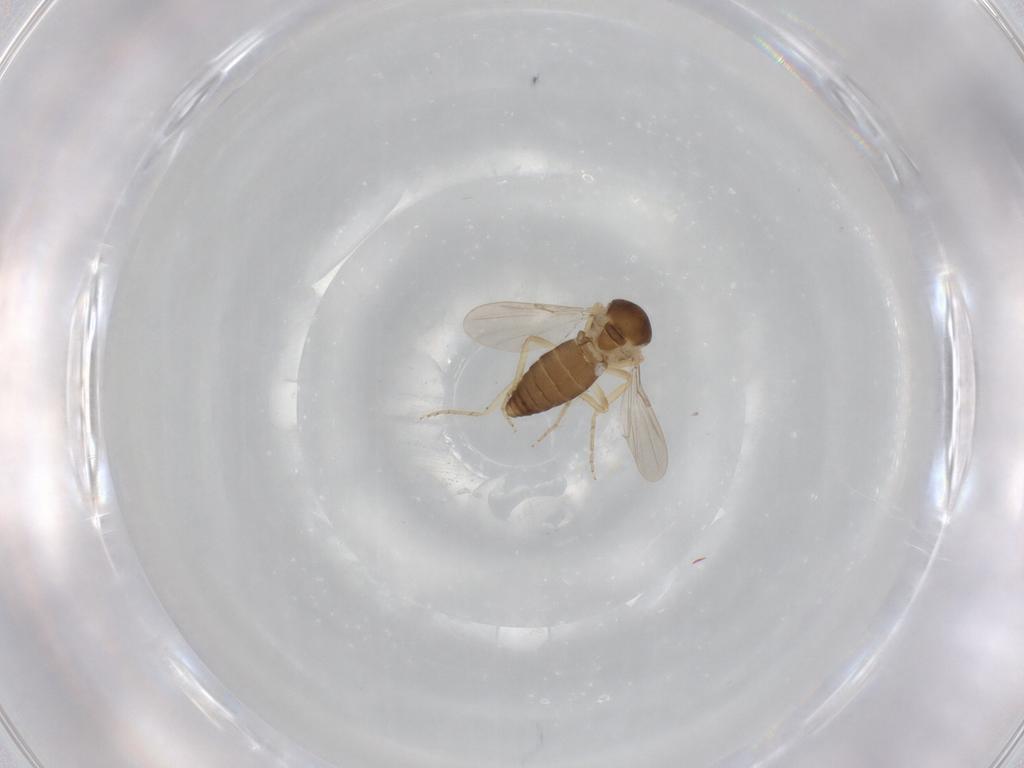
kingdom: Animalia
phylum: Arthropoda
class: Insecta
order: Diptera
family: Ceratopogonidae
